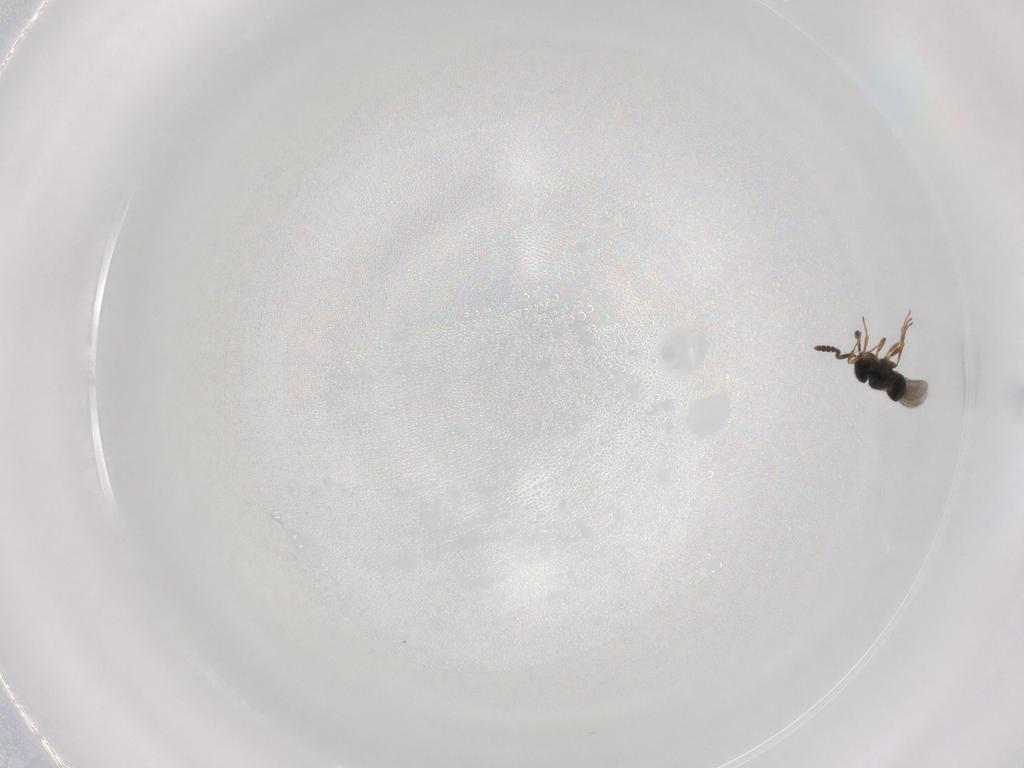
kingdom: Animalia
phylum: Arthropoda
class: Insecta
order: Hymenoptera
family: Scelionidae
